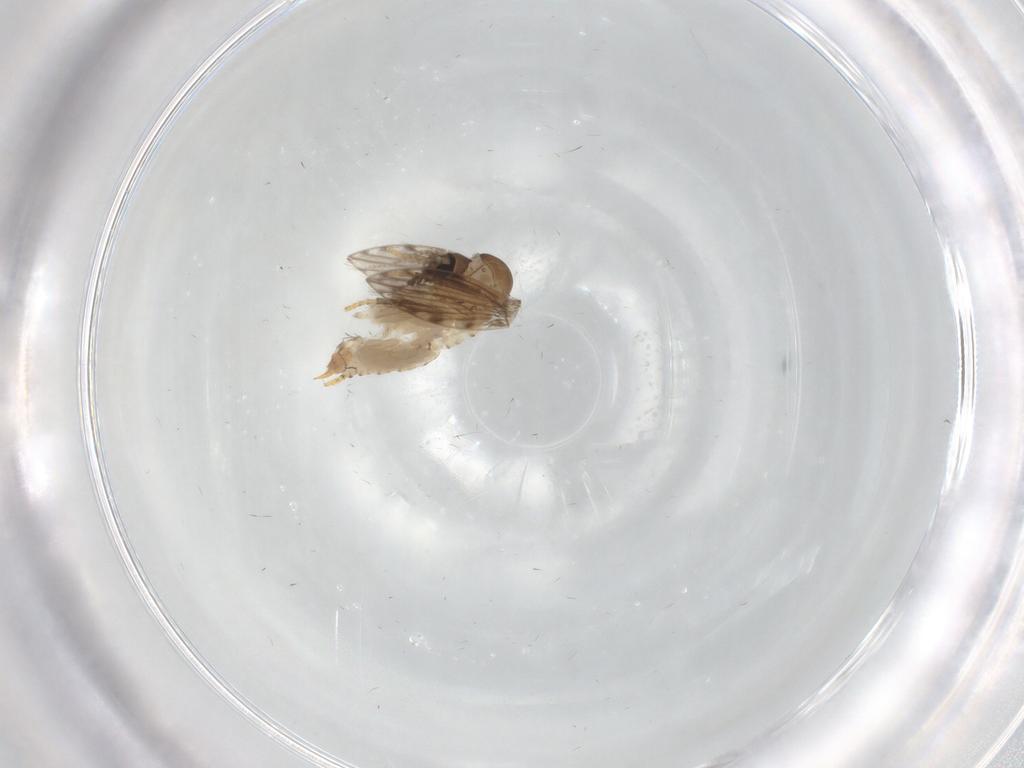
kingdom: Animalia
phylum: Arthropoda
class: Insecta
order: Diptera
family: Psychodidae
